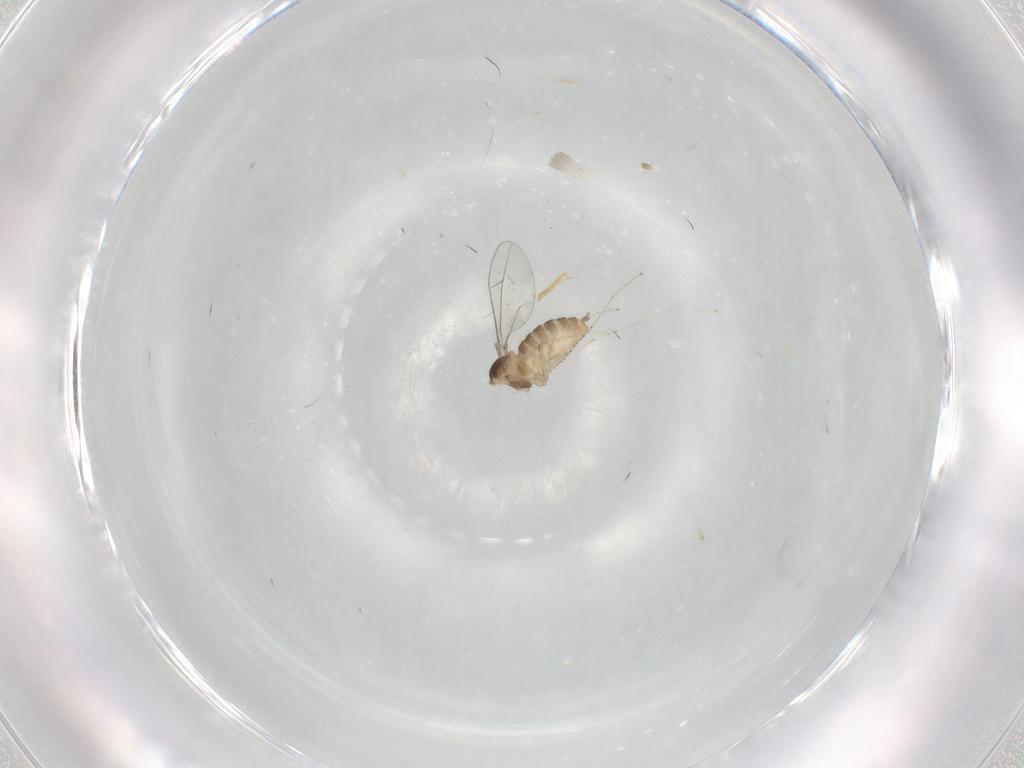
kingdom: Animalia
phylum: Arthropoda
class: Insecta
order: Diptera
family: Cecidomyiidae
